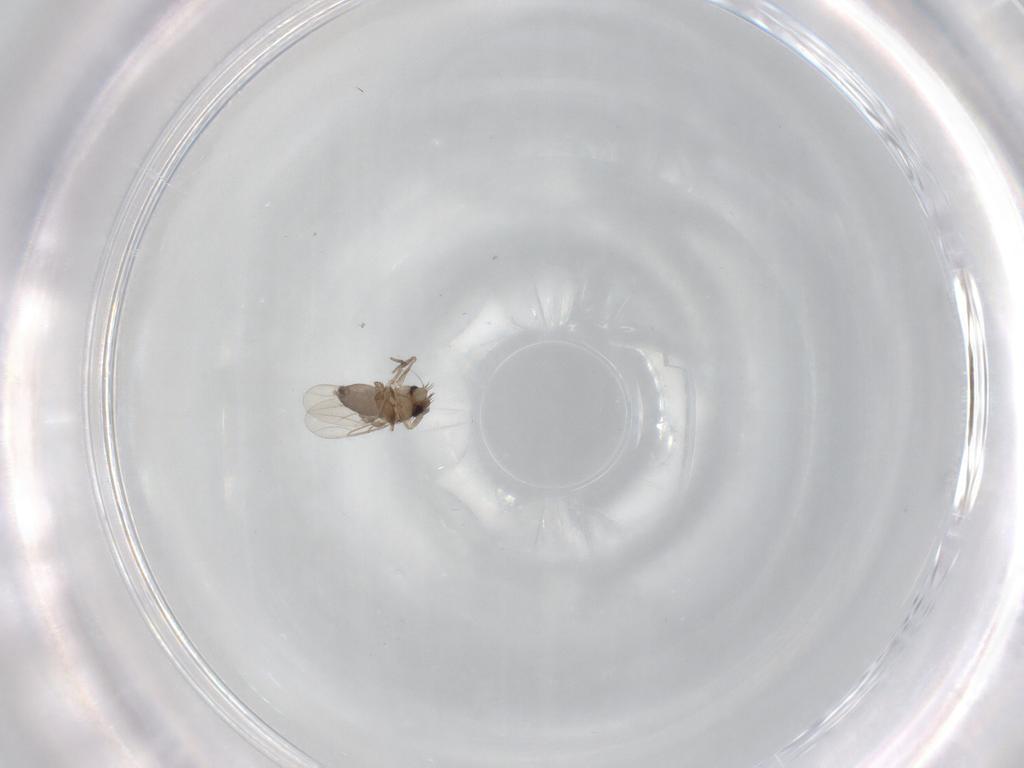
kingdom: Animalia
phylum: Arthropoda
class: Insecta
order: Diptera
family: Phoridae
